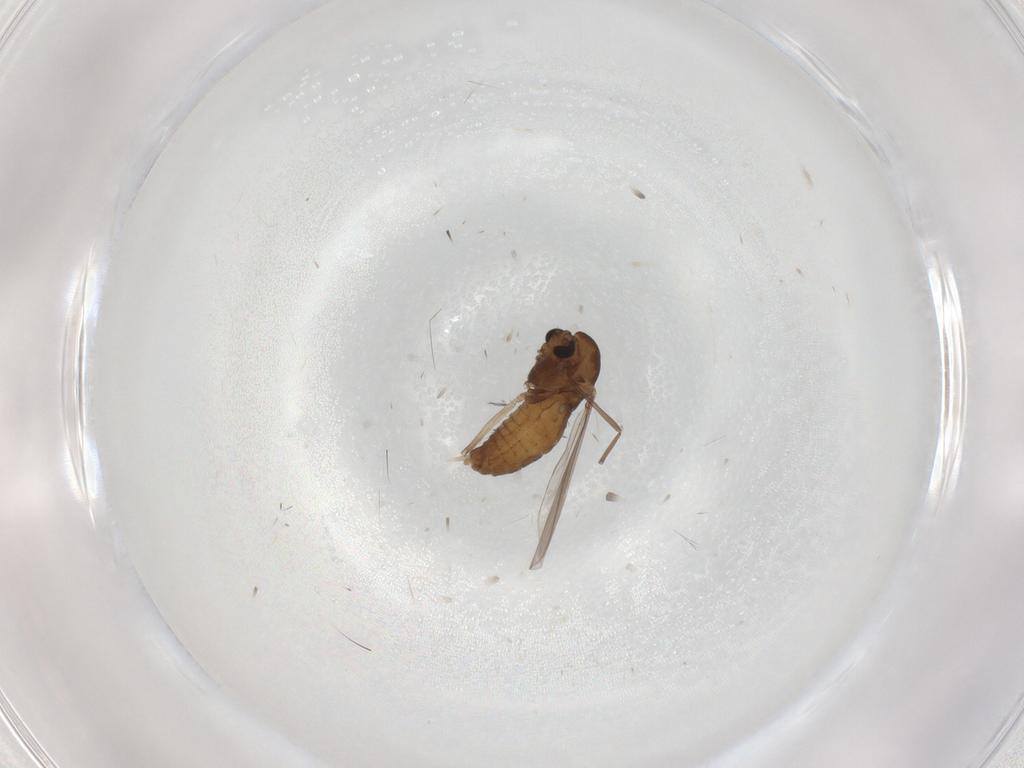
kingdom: Animalia
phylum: Arthropoda
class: Insecta
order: Diptera
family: Chironomidae
